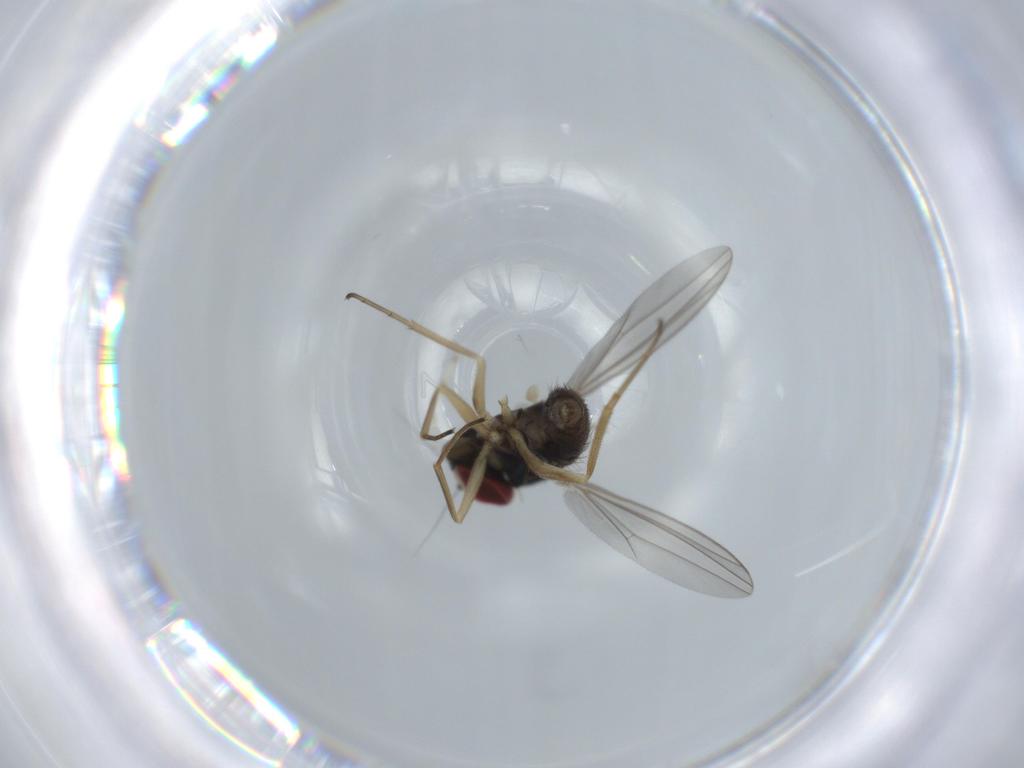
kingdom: Animalia
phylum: Arthropoda
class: Insecta
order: Diptera
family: Dolichopodidae
